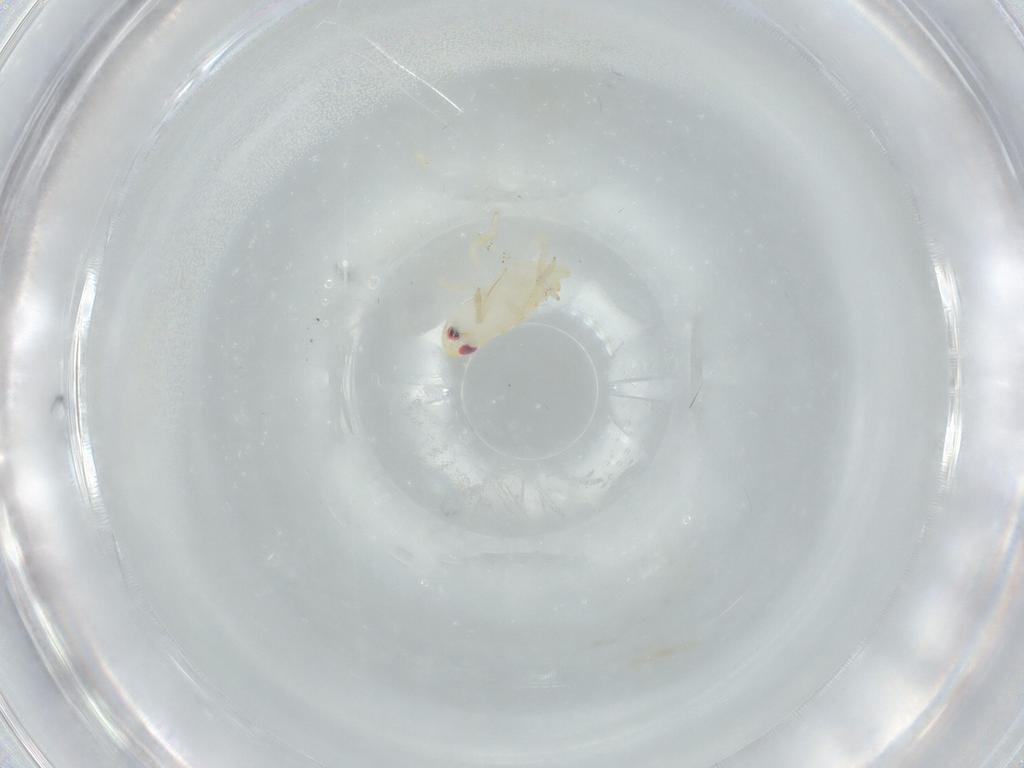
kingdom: Animalia
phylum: Arthropoda
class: Insecta
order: Hemiptera
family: Tropiduchidae
